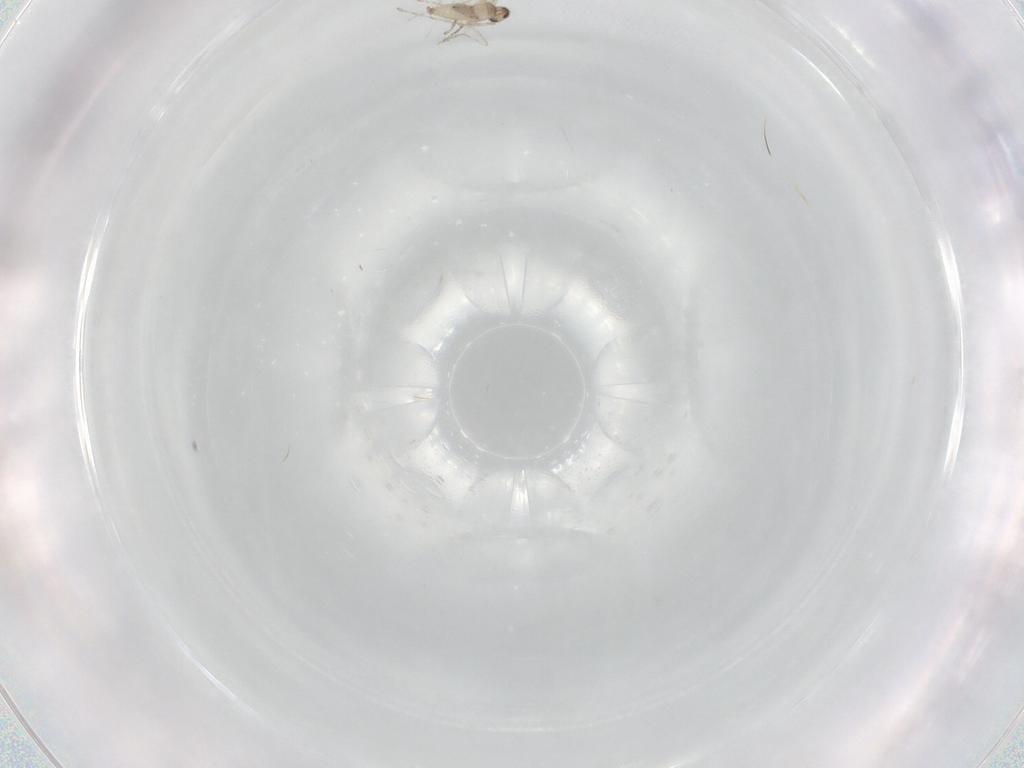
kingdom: Animalia
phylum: Arthropoda
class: Insecta
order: Diptera
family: Cecidomyiidae
